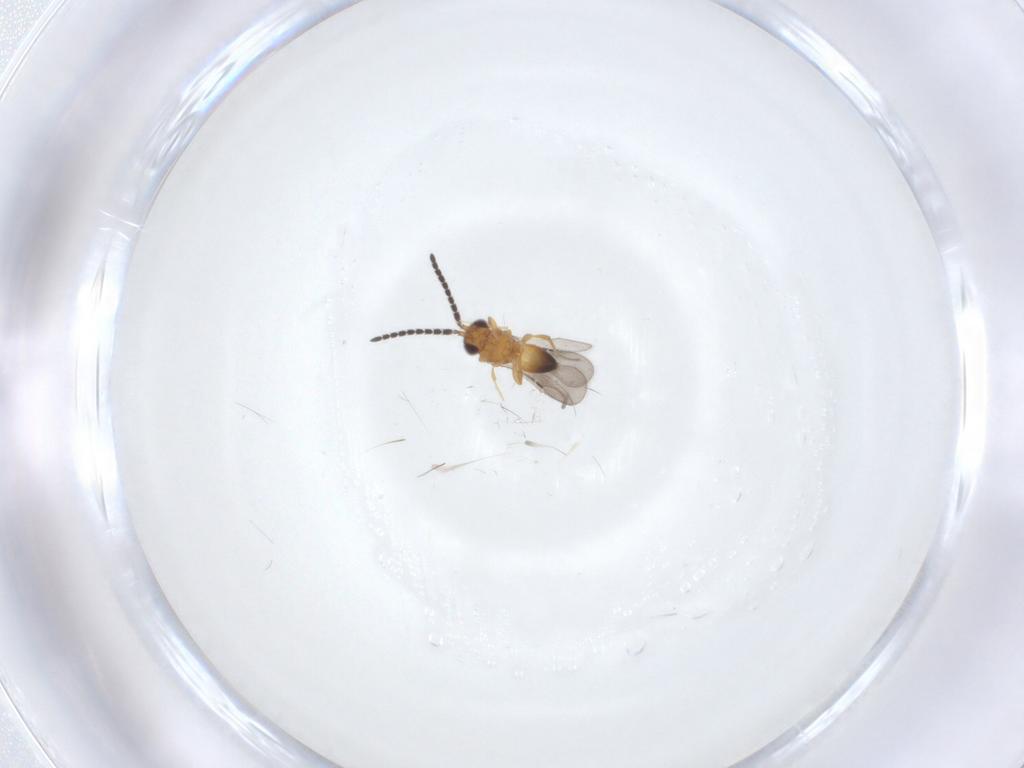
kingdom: Animalia
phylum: Arthropoda
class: Insecta
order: Hymenoptera
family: Ceraphronidae
